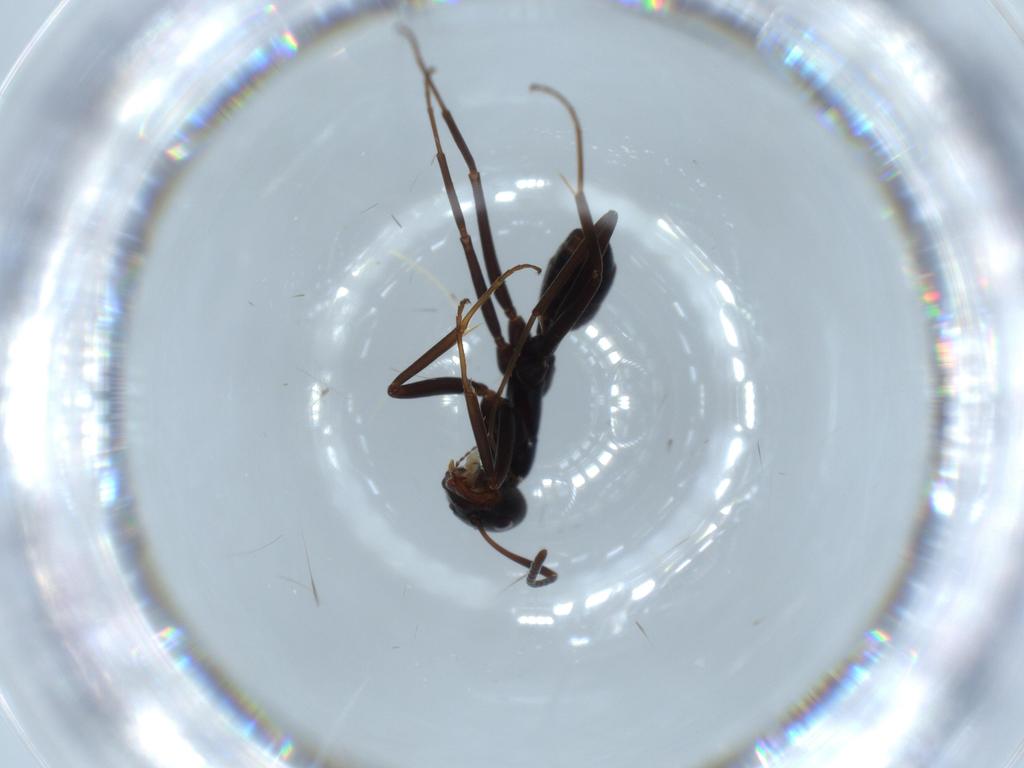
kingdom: Animalia
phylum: Arthropoda
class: Insecta
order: Hymenoptera
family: Formicidae
